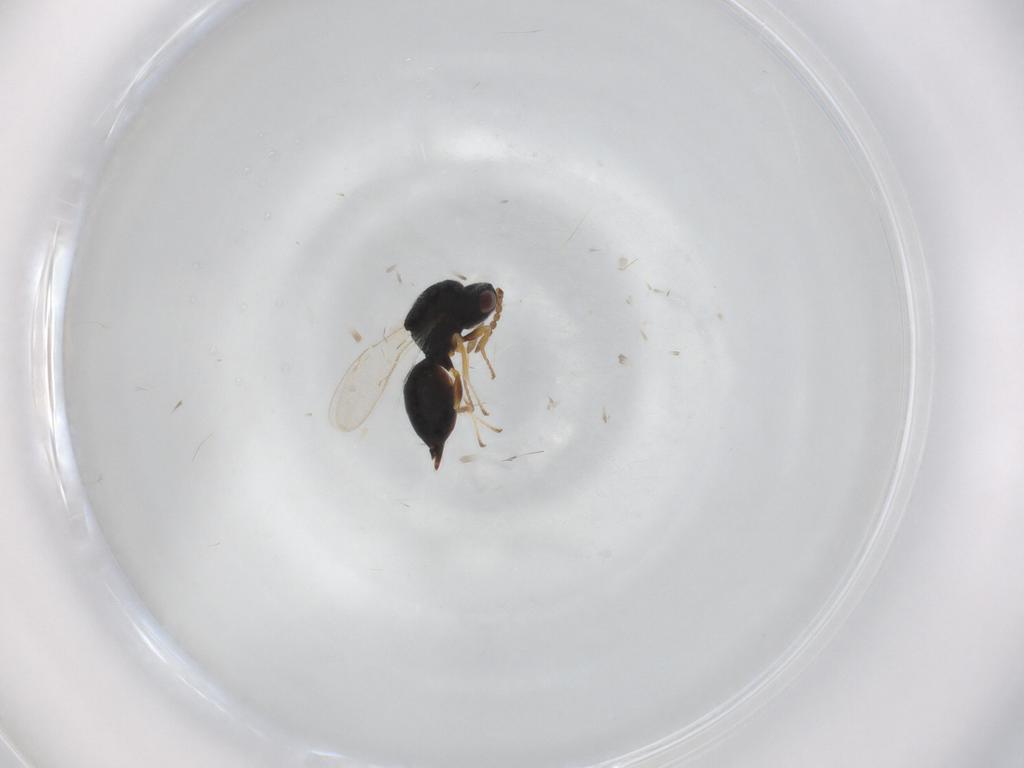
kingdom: Animalia
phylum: Arthropoda
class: Insecta
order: Hymenoptera
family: Eurytomidae
